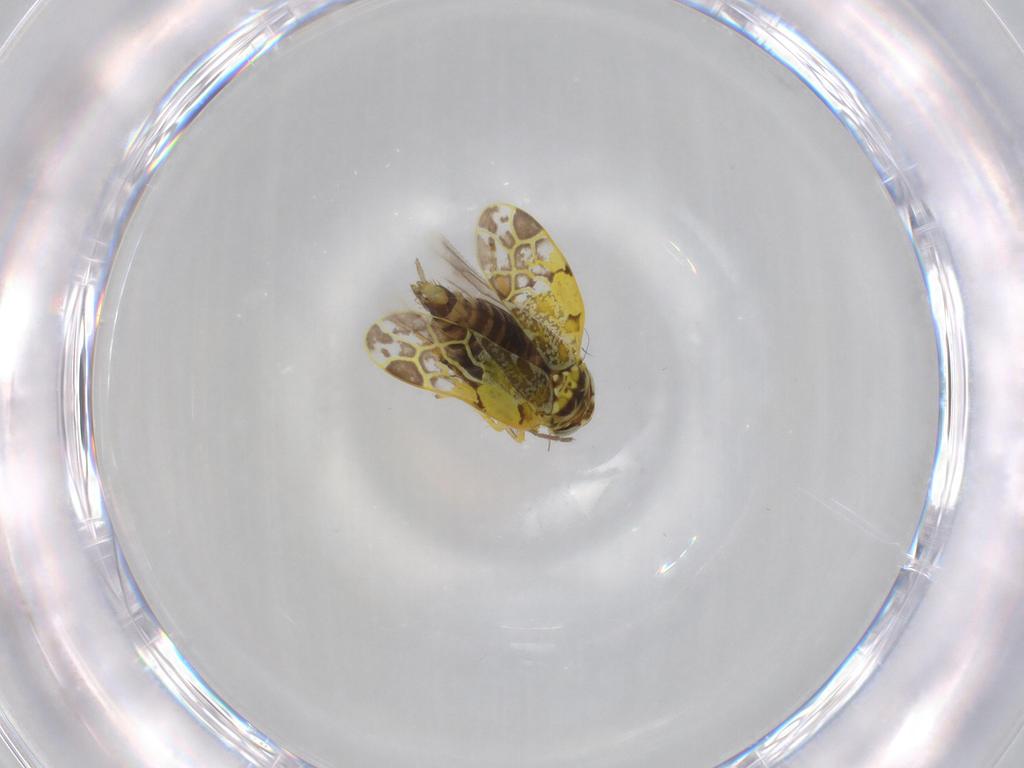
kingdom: Animalia
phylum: Arthropoda
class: Insecta
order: Hemiptera
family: Cicadellidae
